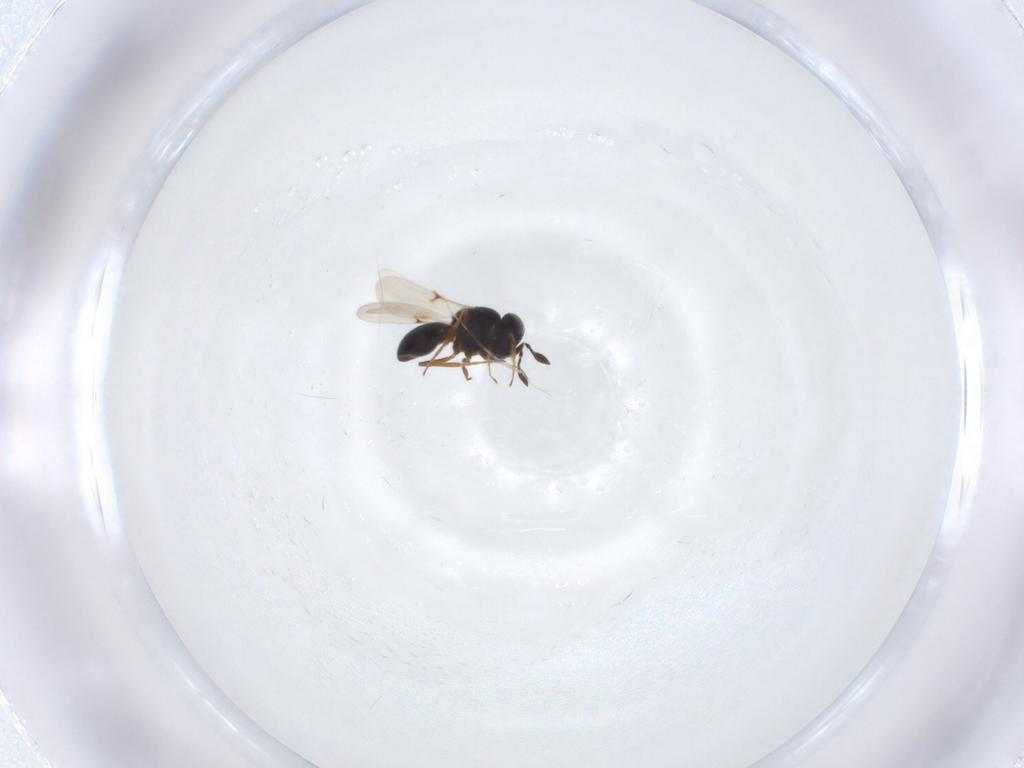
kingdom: Animalia
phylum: Arthropoda
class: Arachnida
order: Araneae
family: Pholcidae
